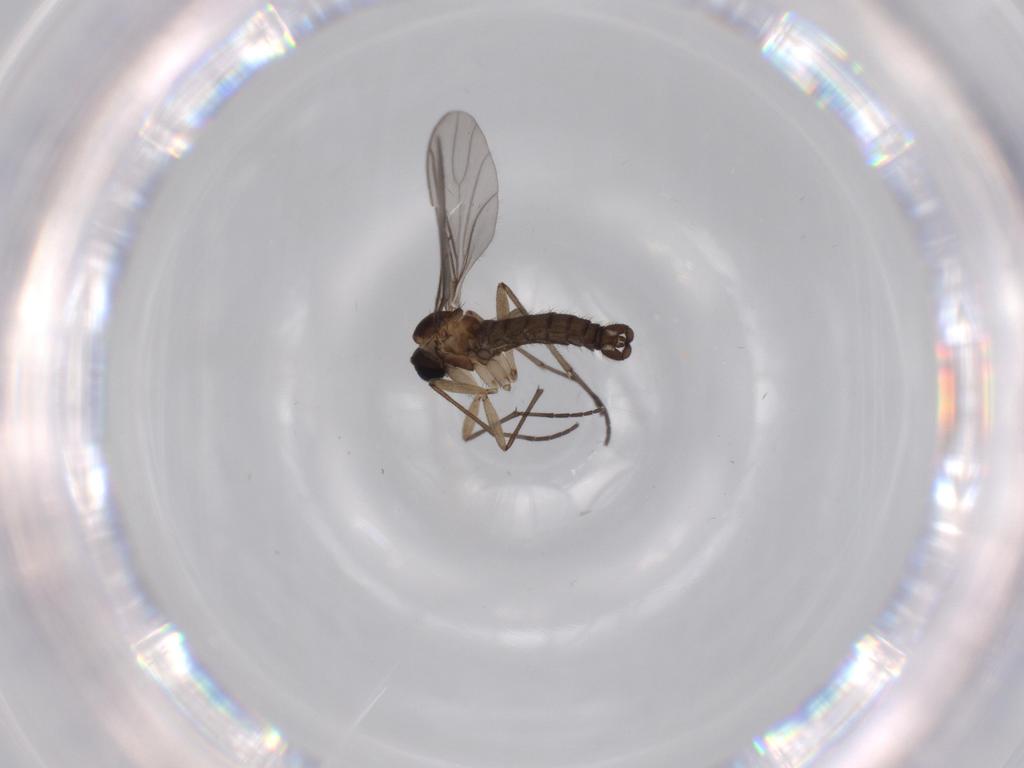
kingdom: Animalia
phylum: Arthropoda
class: Insecta
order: Diptera
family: Sciaridae
